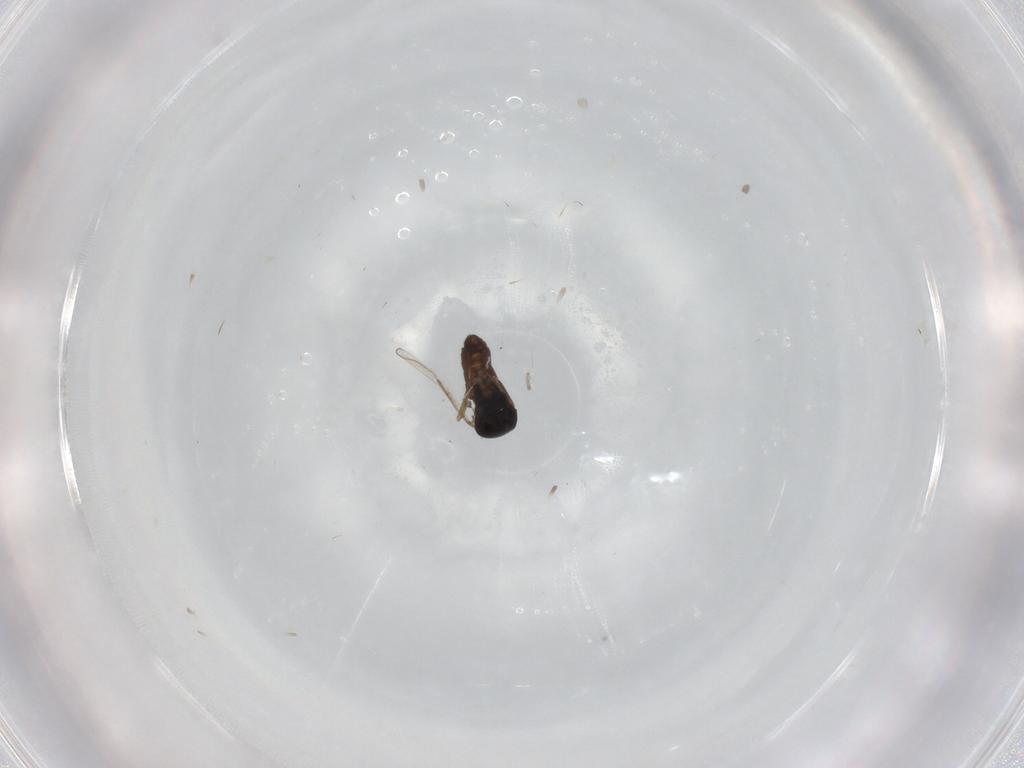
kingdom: Animalia
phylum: Arthropoda
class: Insecta
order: Diptera
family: Ceratopogonidae
